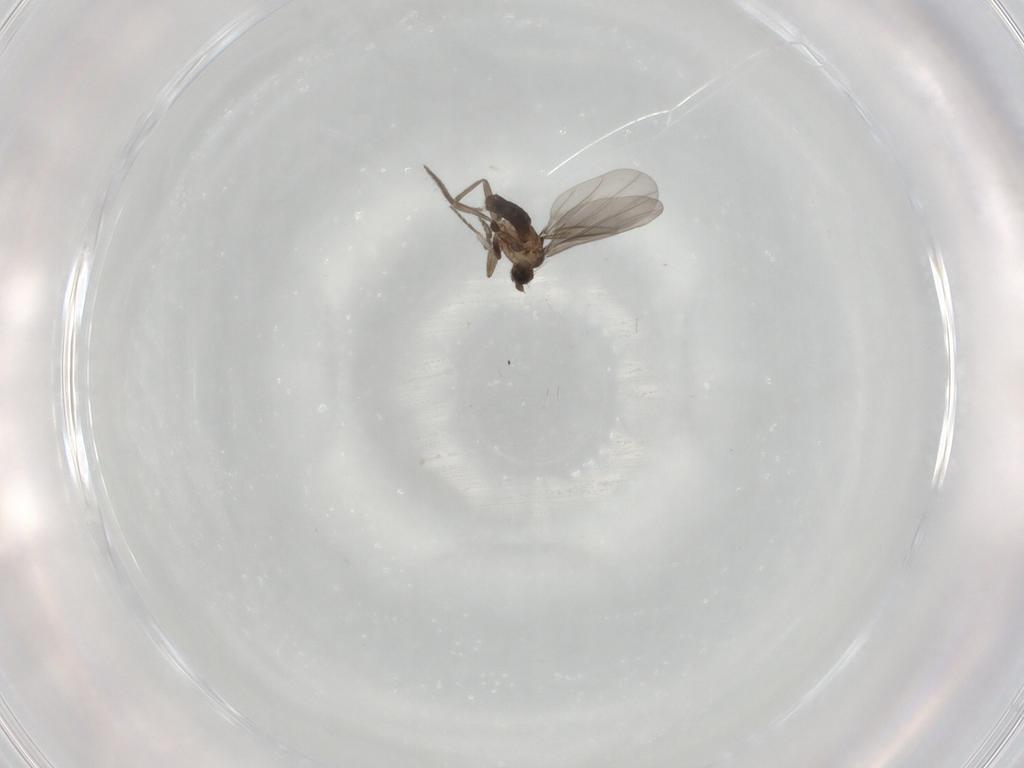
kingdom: Animalia
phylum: Arthropoda
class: Insecta
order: Diptera
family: Phoridae
